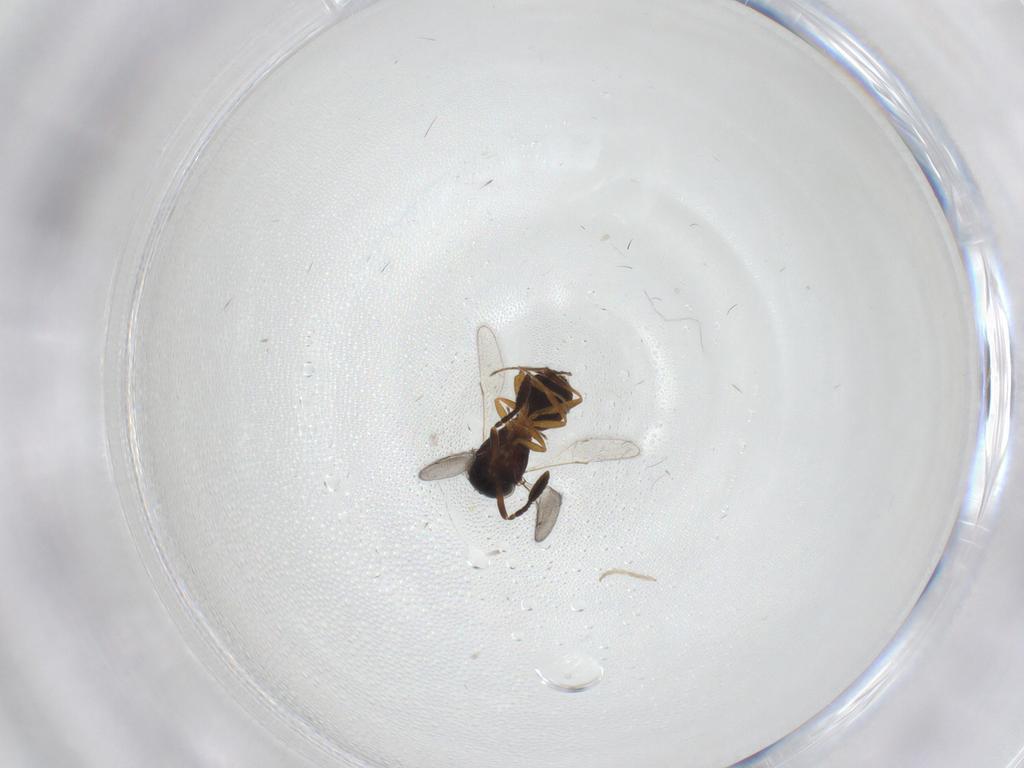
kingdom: Animalia
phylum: Arthropoda
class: Insecta
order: Hymenoptera
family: Scelionidae
